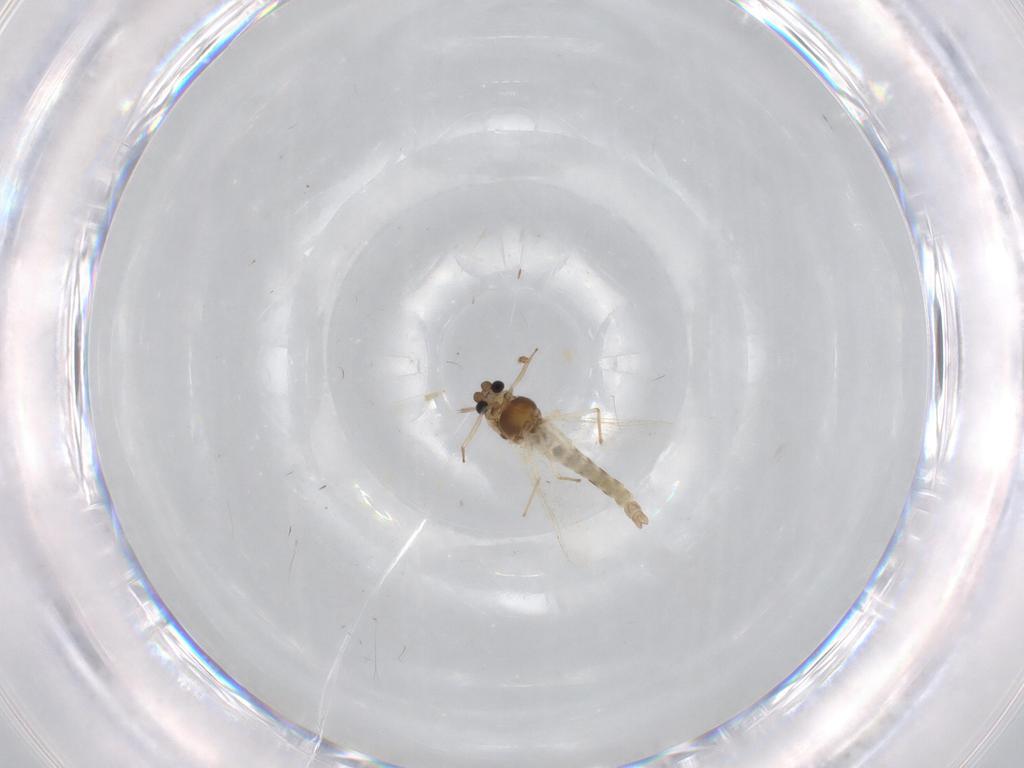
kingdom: Animalia
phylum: Arthropoda
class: Insecta
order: Diptera
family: Chironomidae
